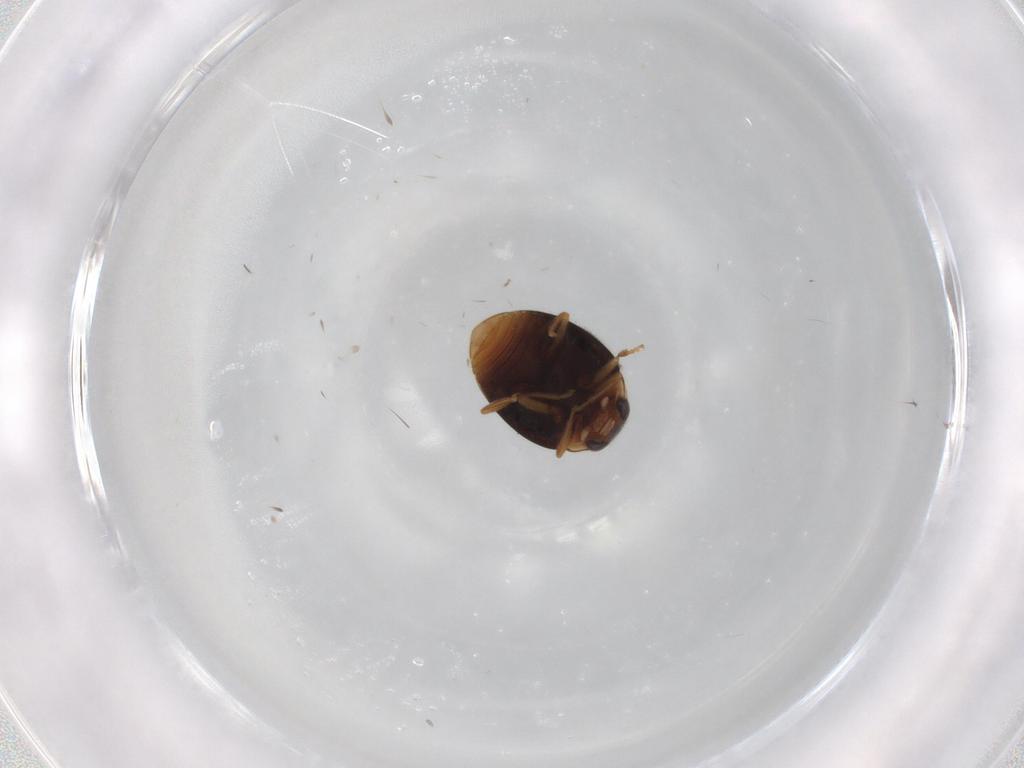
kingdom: Animalia
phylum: Arthropoda
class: Insecta
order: Coleoptera
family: Coccinellidae
